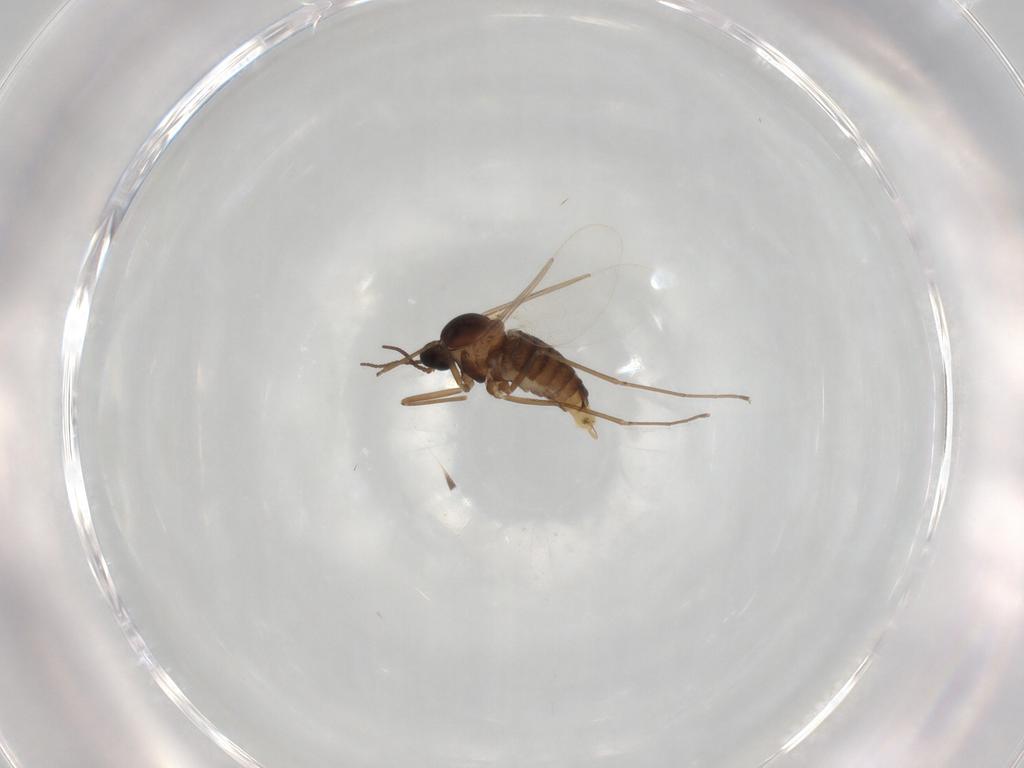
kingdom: Animalia
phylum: Arthropoda
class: Insecta
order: Diptera
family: Cecidomyiidae
